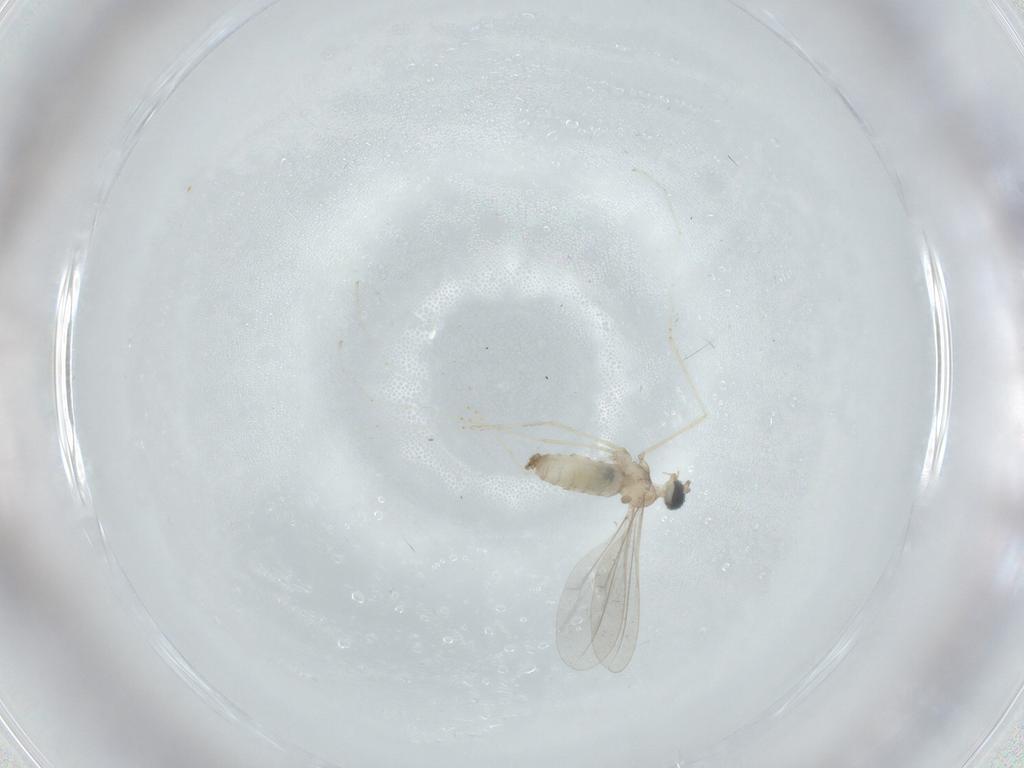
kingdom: Animalia
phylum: Arthropoda
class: Insecta
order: Diptera
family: Cecidomyiidae
